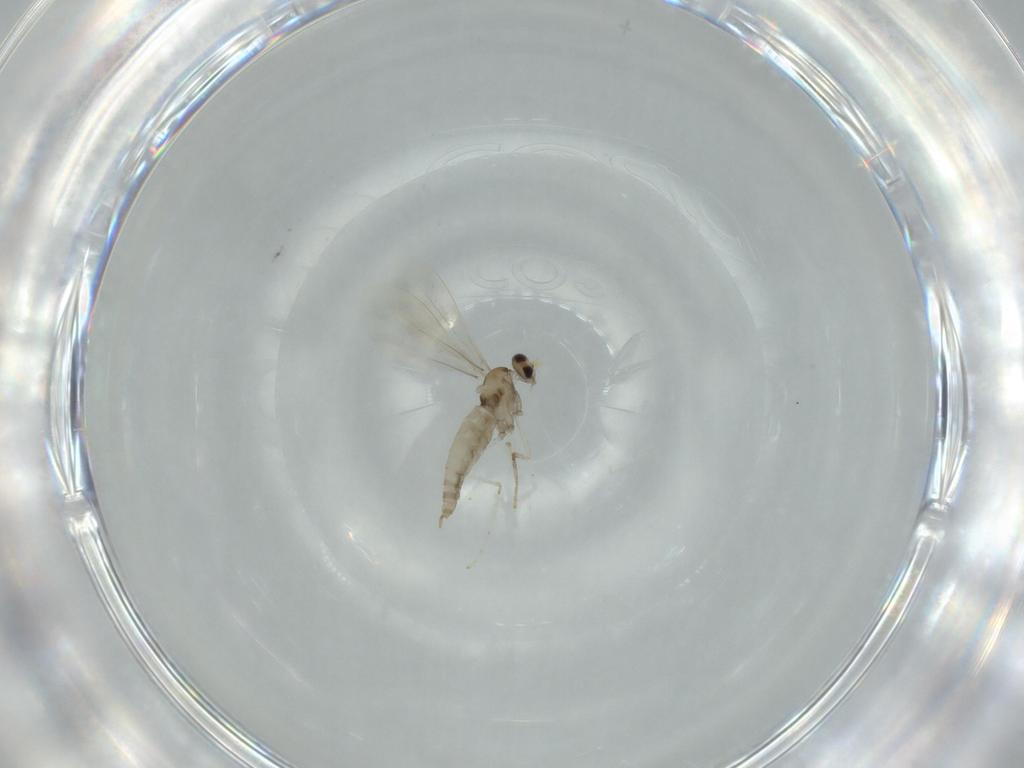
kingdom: Animalia
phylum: Arthropoda
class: Insecta
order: Diptera
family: Cecidomyiidae
